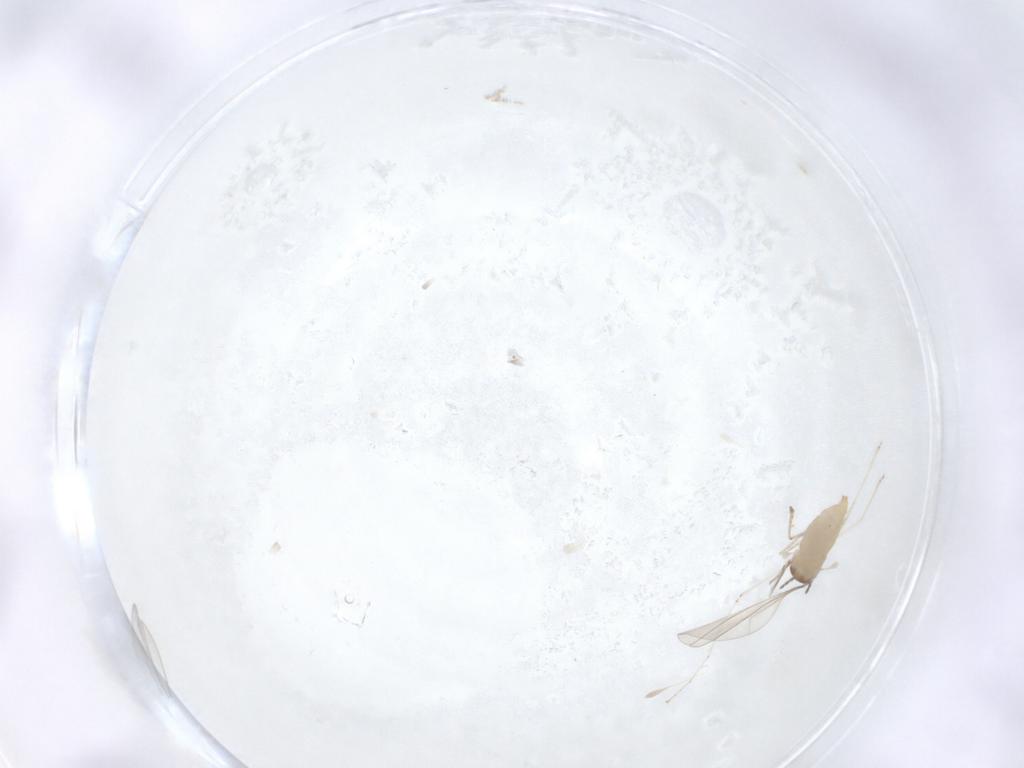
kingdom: Animalia
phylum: Arthropoda
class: Insecta
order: Diptera
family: Cecidomyiidae
